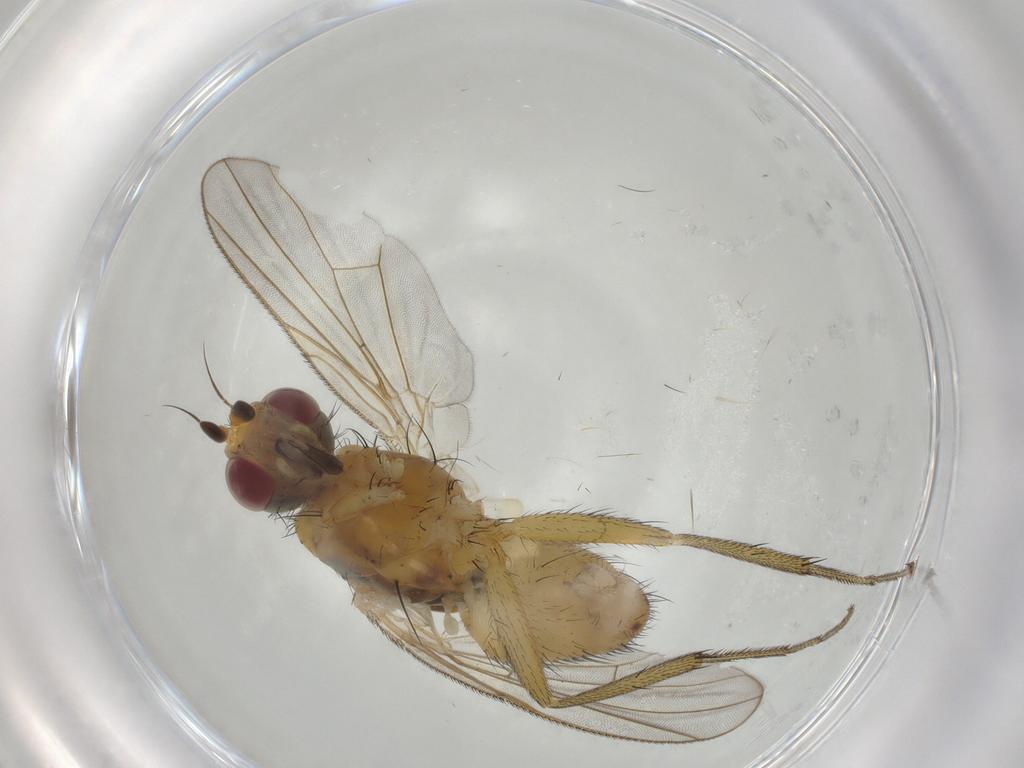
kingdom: Animalia
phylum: Arthropoda
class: Insecta
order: Diptera
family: Muscidae
